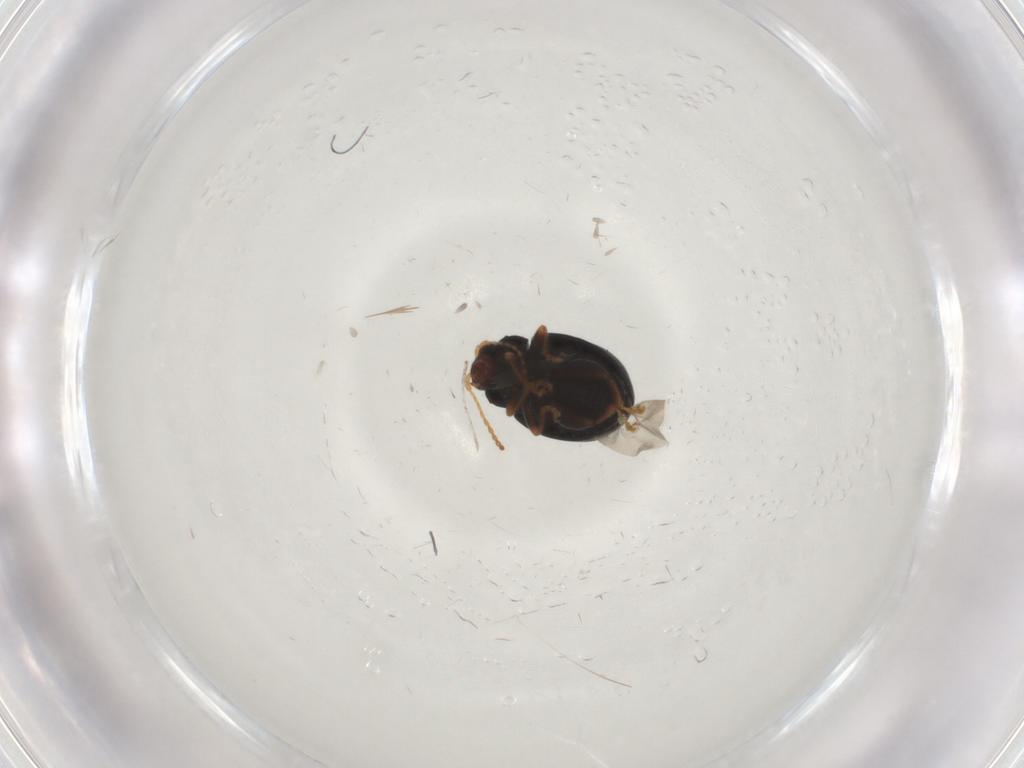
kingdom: Animalia
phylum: Arthropoda
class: Insecta
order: Coleoptera
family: Chrysomelidae
